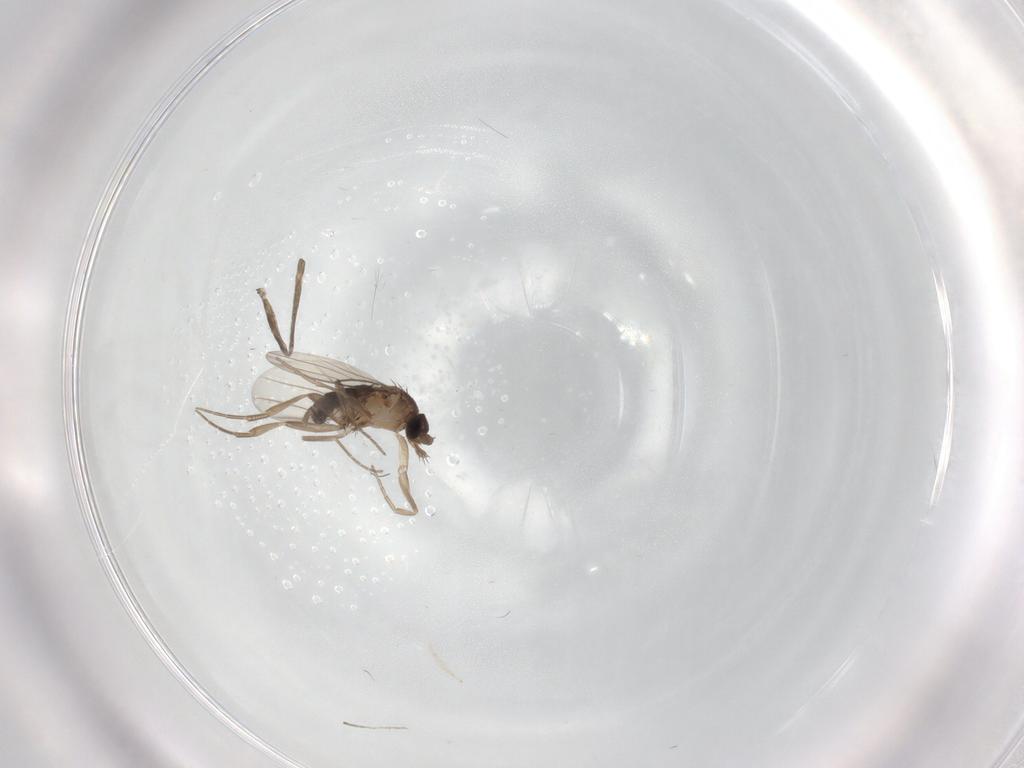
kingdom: Animalia
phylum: Arthropoda
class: Insecta
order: Diptera
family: Phoridae
